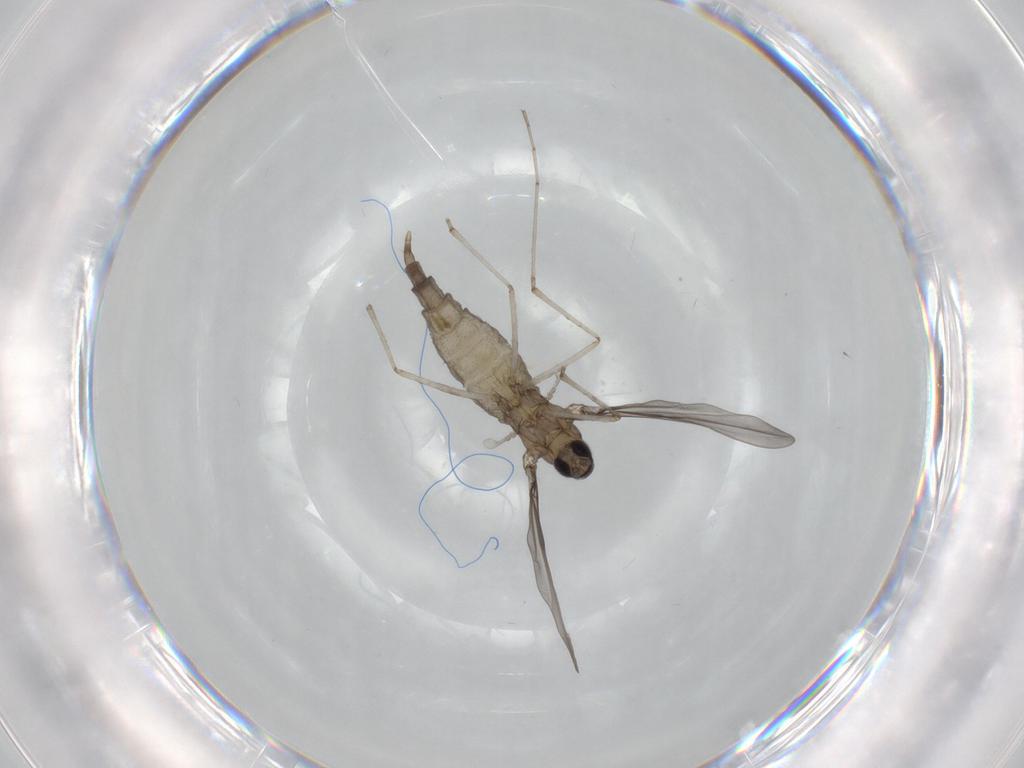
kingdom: Animalia
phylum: Arthropoda
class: Insecta
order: Diptera
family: Cecidomyiidae
